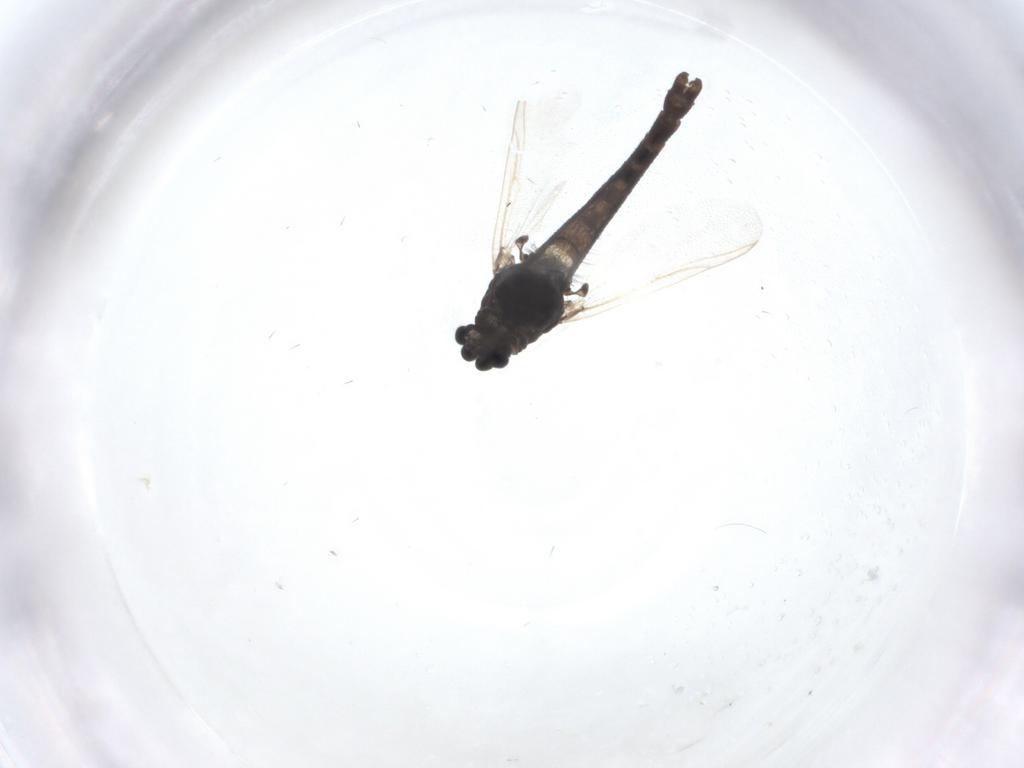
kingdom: Animalia
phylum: Arthropoda
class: Insecta
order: Diptera
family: Chironomidae
